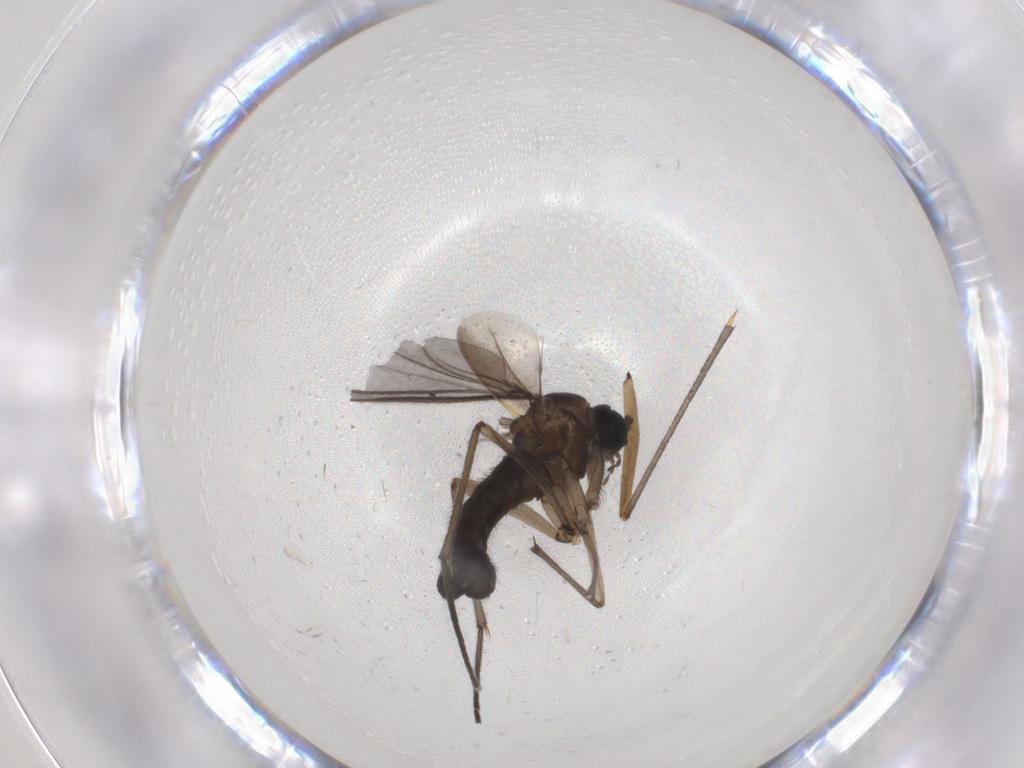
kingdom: Animalia
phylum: Arthropoda
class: Insecta
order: Diptera
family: Sciaridae
